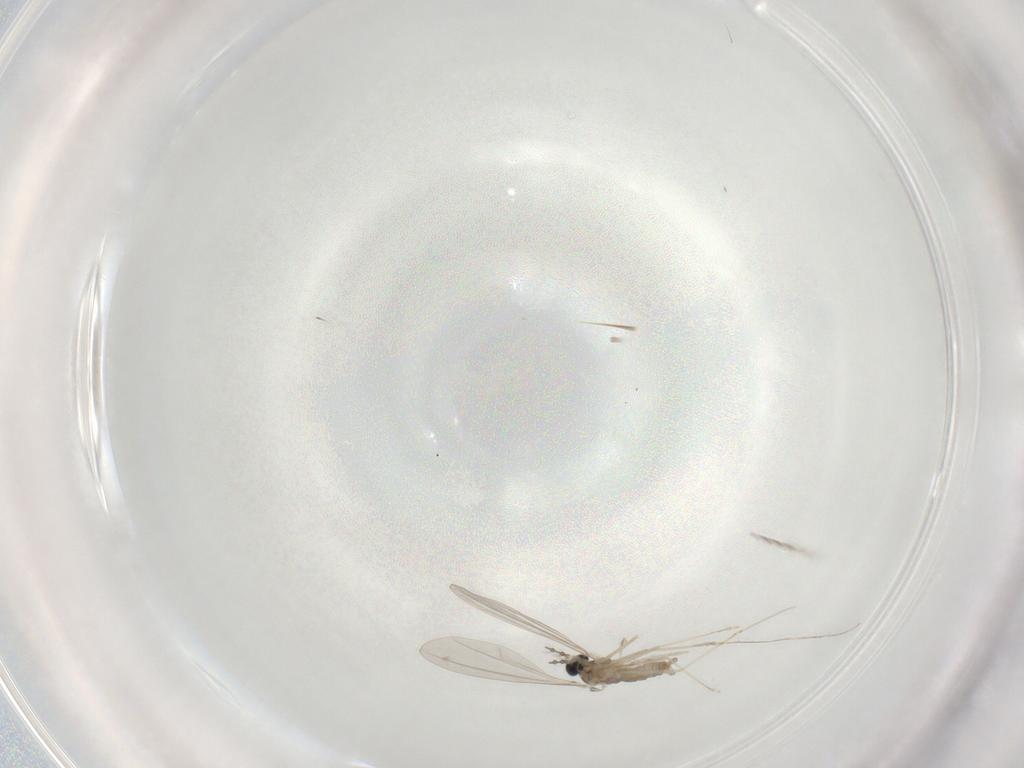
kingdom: Animalia
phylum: Arthropoda
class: Insecta
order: Diptera
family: Cecidomyiidae
